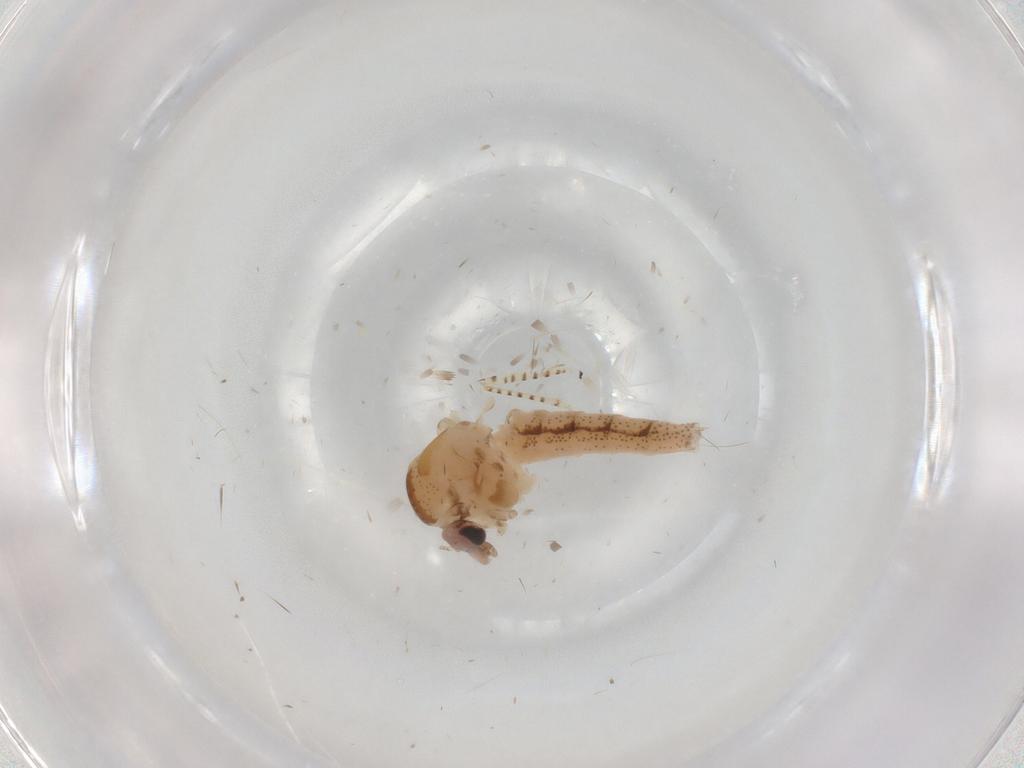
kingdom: Animalia
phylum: Arthropoda
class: Insecta
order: Diptera
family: Chaoboridae
